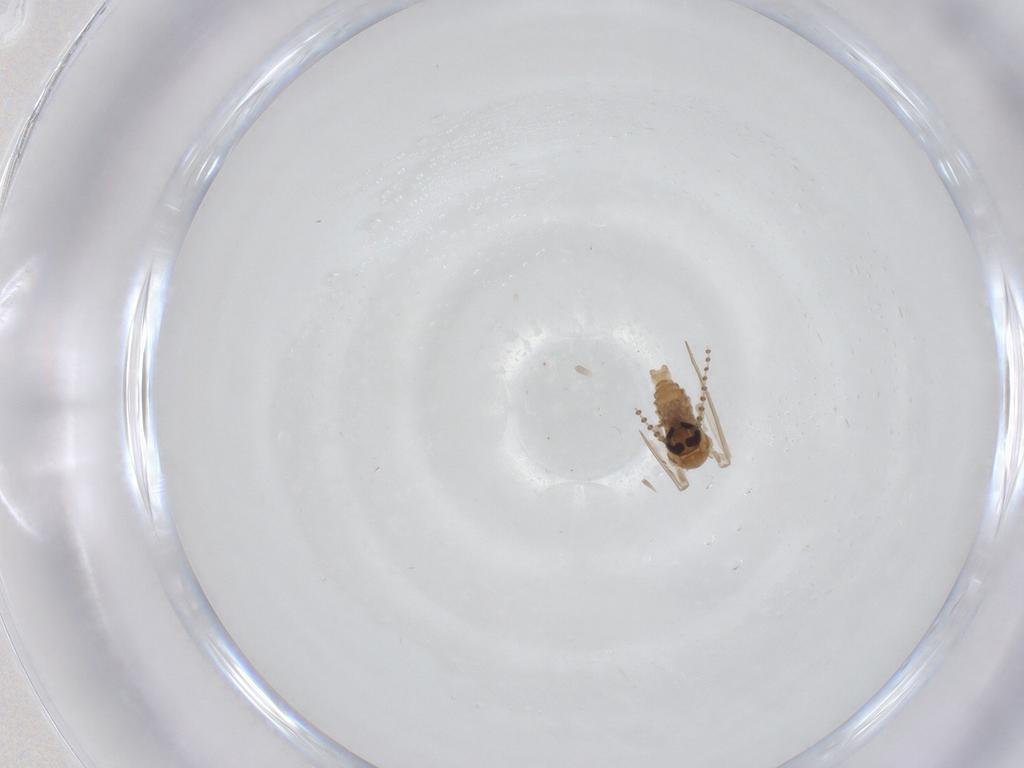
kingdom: Animalia
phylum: Arthropoda
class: Insecta
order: Diptera
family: Psychodidae
